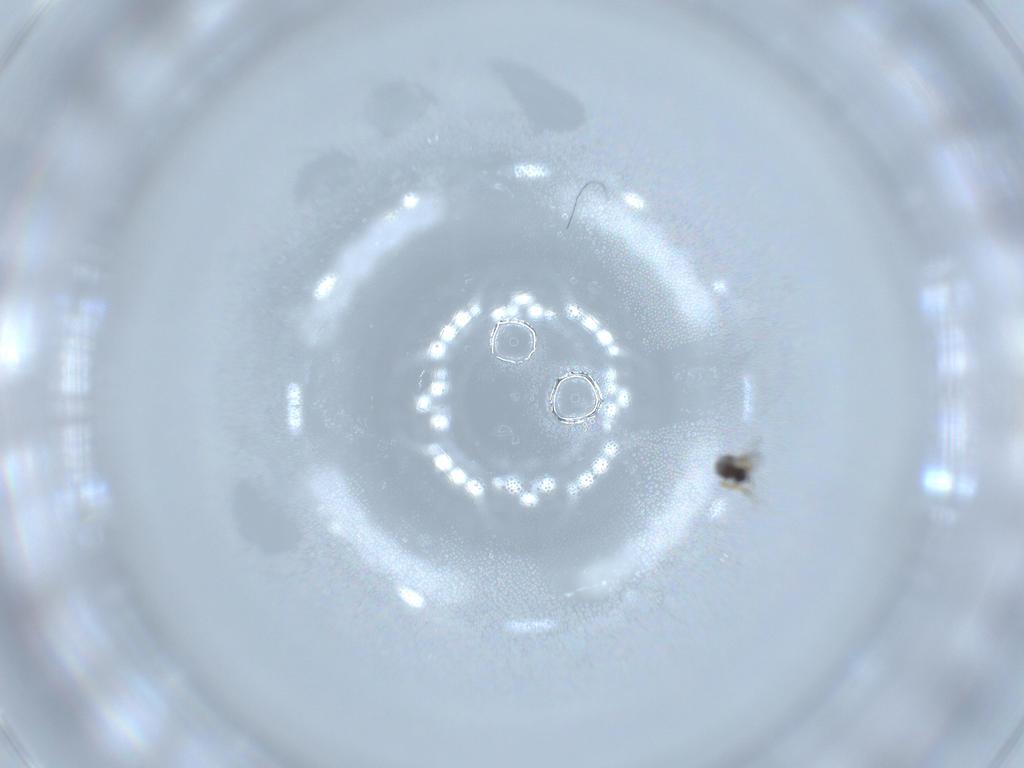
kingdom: Animalia
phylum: Arthropoda
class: Insecta
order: Hymenoptera
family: Platygastridae
